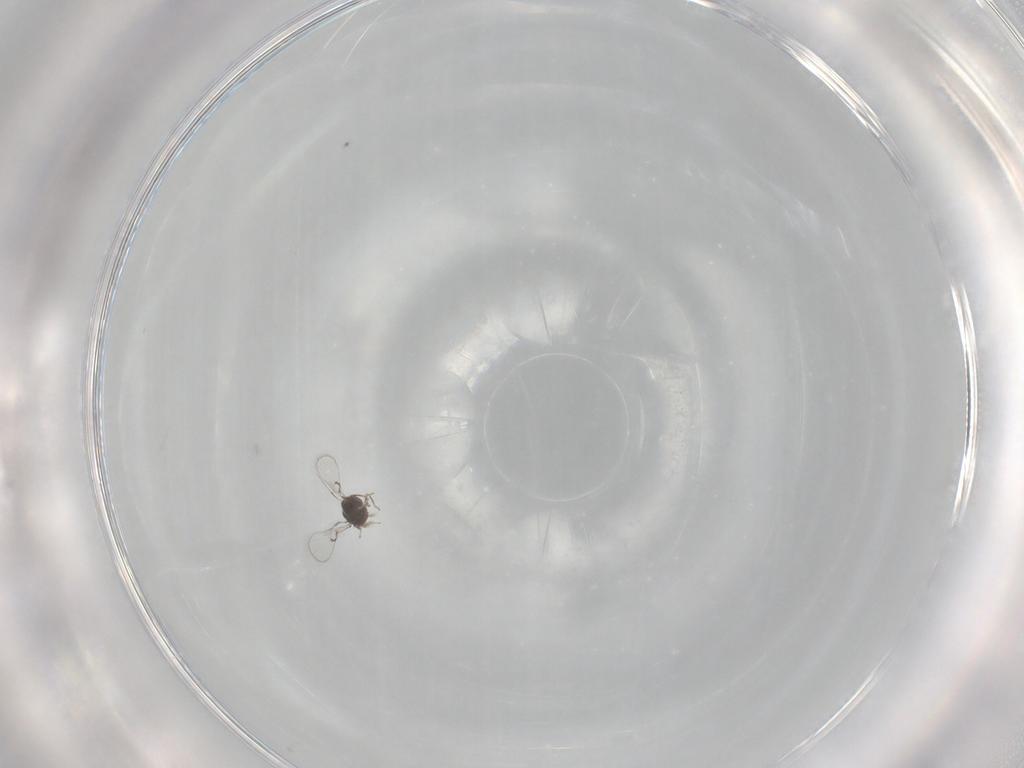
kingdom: Animalia
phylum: Arthropoda
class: Insecta
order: Hymenoptera
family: Trichogrammatidae
